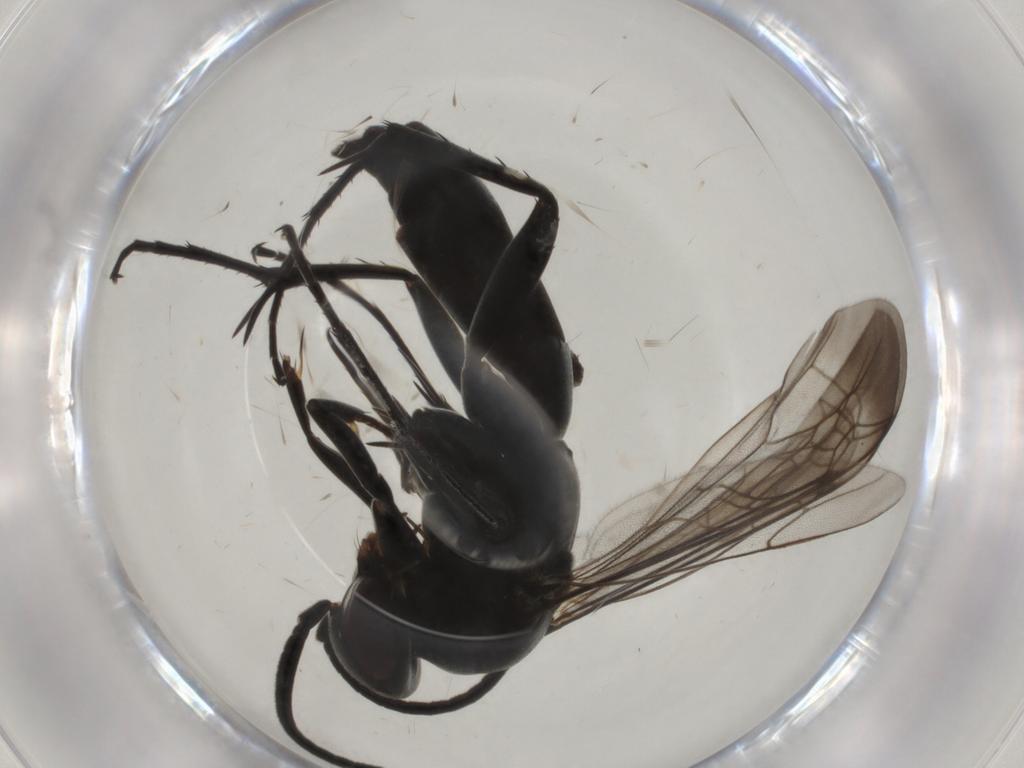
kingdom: Animalia
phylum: Arthropoda
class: Insecta
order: Hymenoptera
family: Pompilidae
